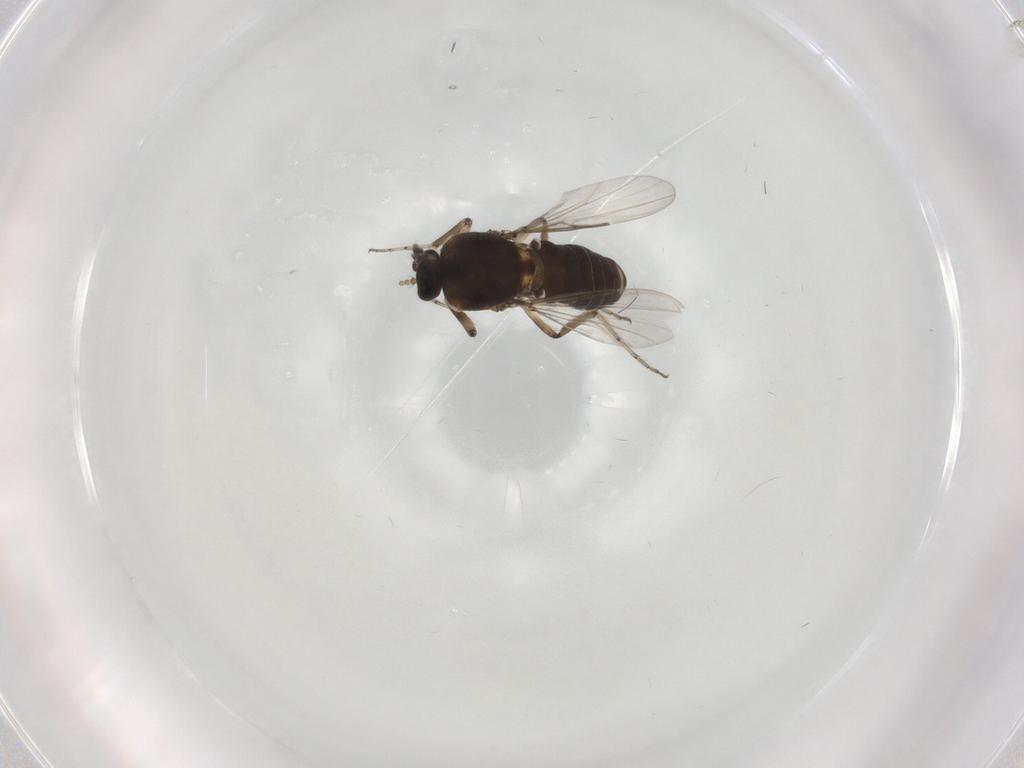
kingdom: Animalia
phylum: Arthropoda
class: Insecta
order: Diptera
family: Ceratopogonidae
